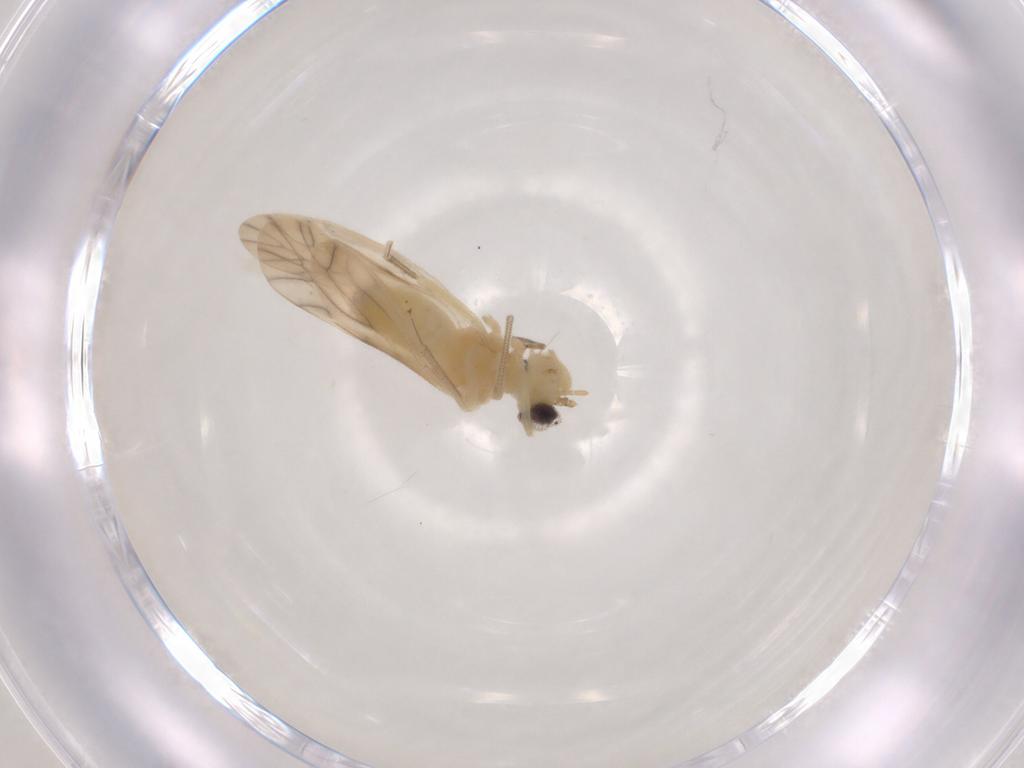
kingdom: Animalia
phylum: Arthropoda
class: Insecta
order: Psocodea
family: Caeciliusidae
